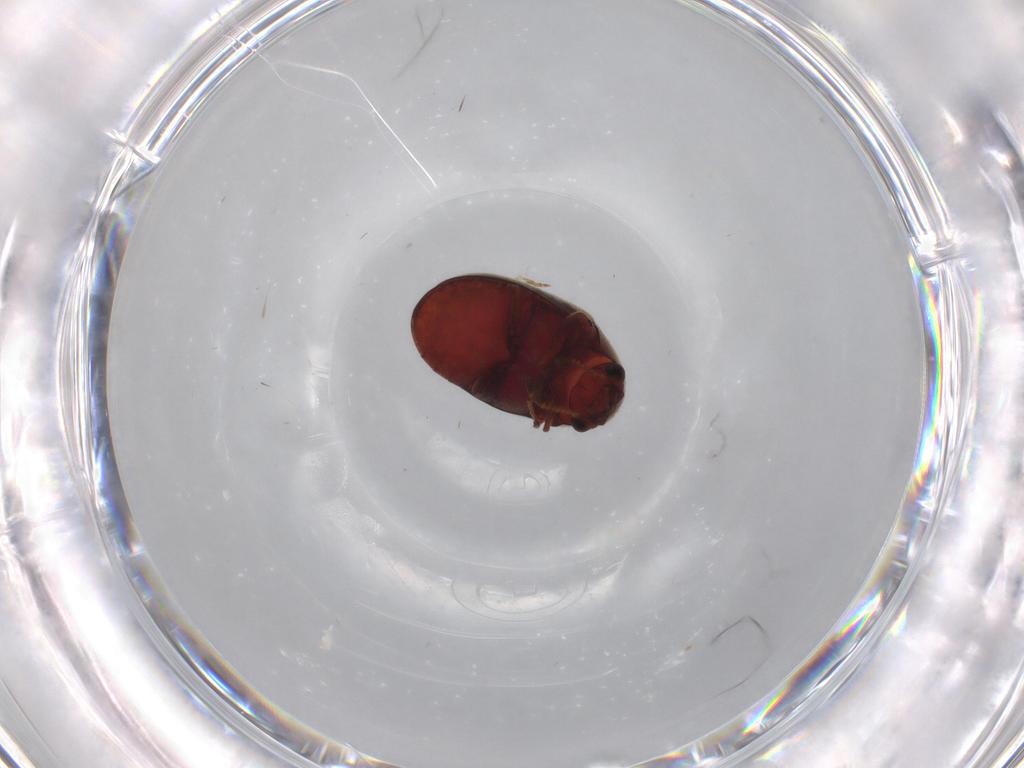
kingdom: Animalia
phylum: Arthropoda
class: Insecta
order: Coleoptera
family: Ptinidae
